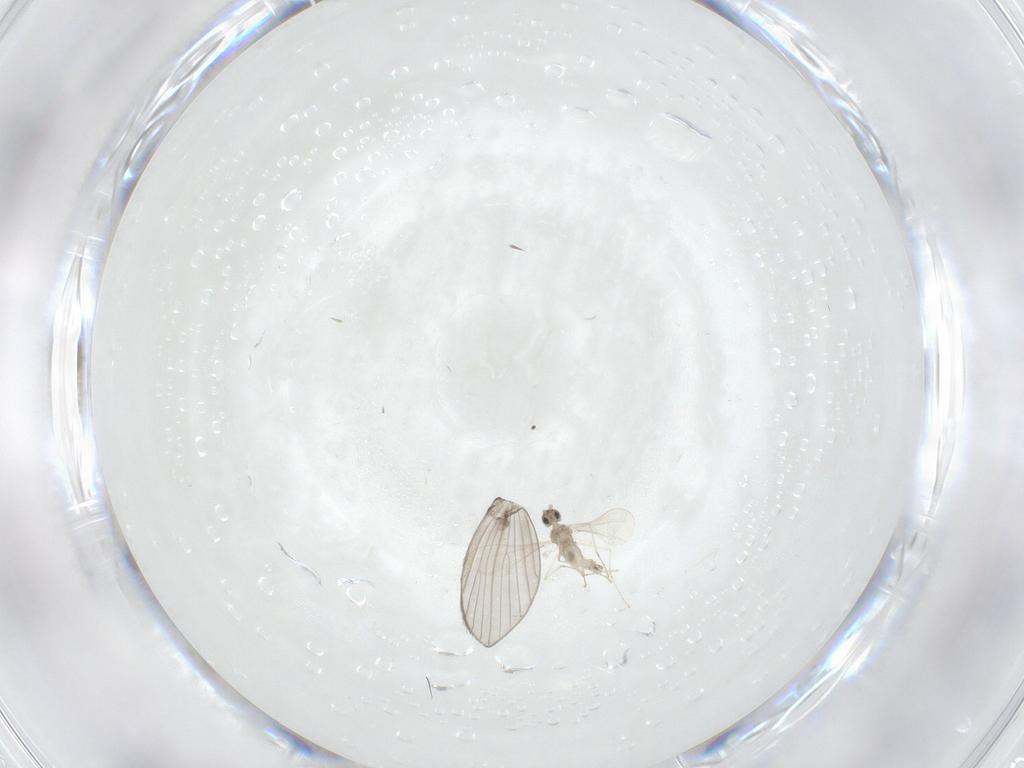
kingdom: Animalia
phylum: Arthropoda
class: Insecta
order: Diptera
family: Psychodidae
